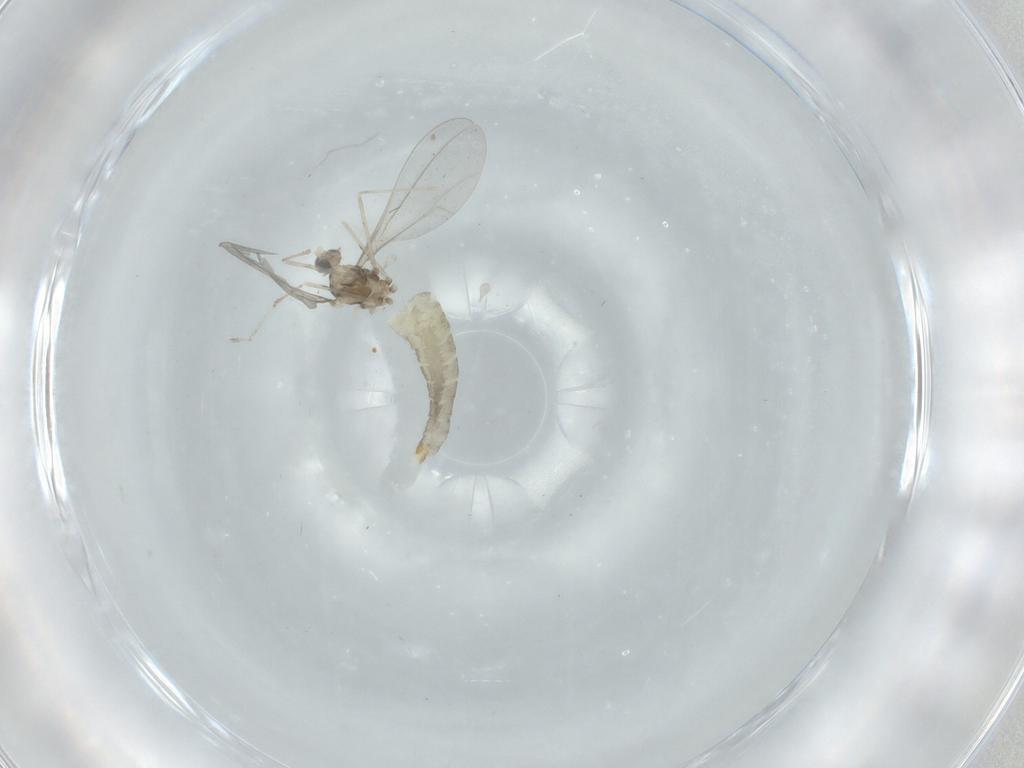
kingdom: Animalia
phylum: Arthropoda
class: Insecta
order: Diptera
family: Cecidomyiidae
